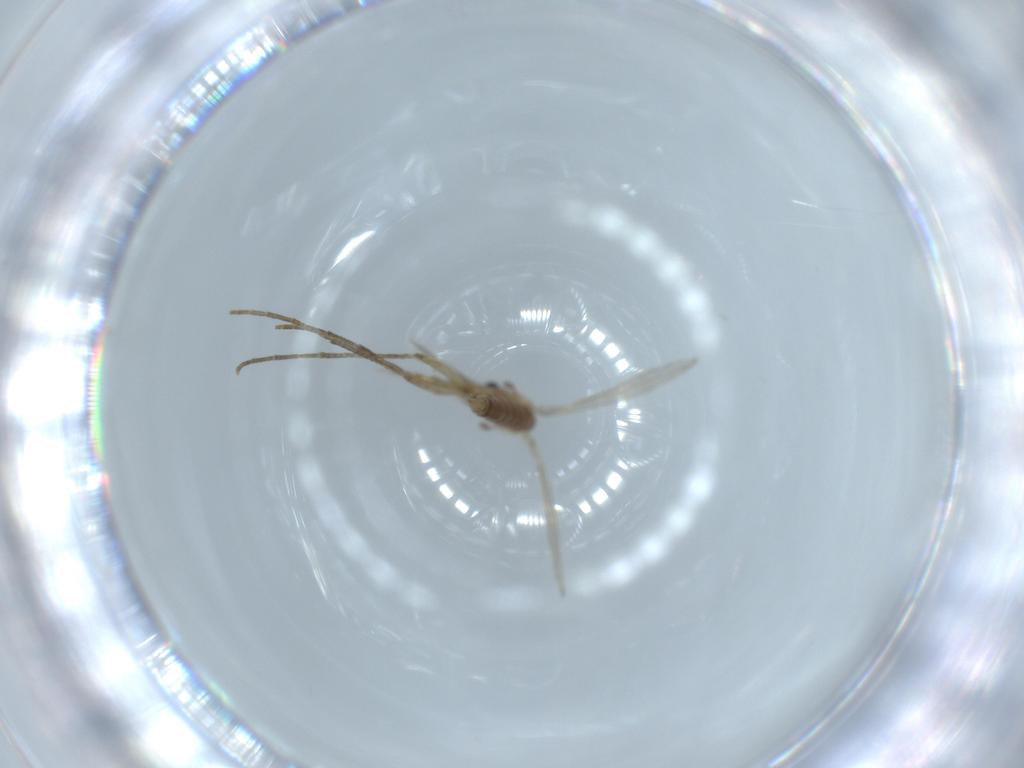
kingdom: Animalia
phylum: Arthropoda
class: Insecta
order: Diptera
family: Psychodidae
